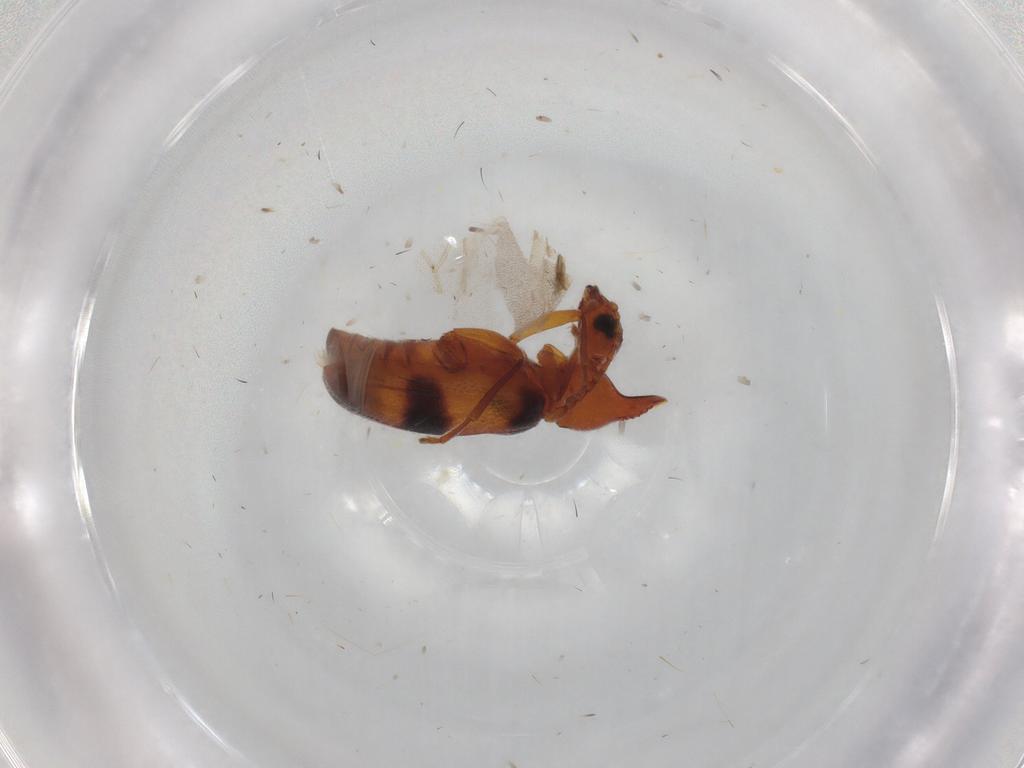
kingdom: Animalia
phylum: Arthropoda
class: Insecta
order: Coleoptera
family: Anthicidae
